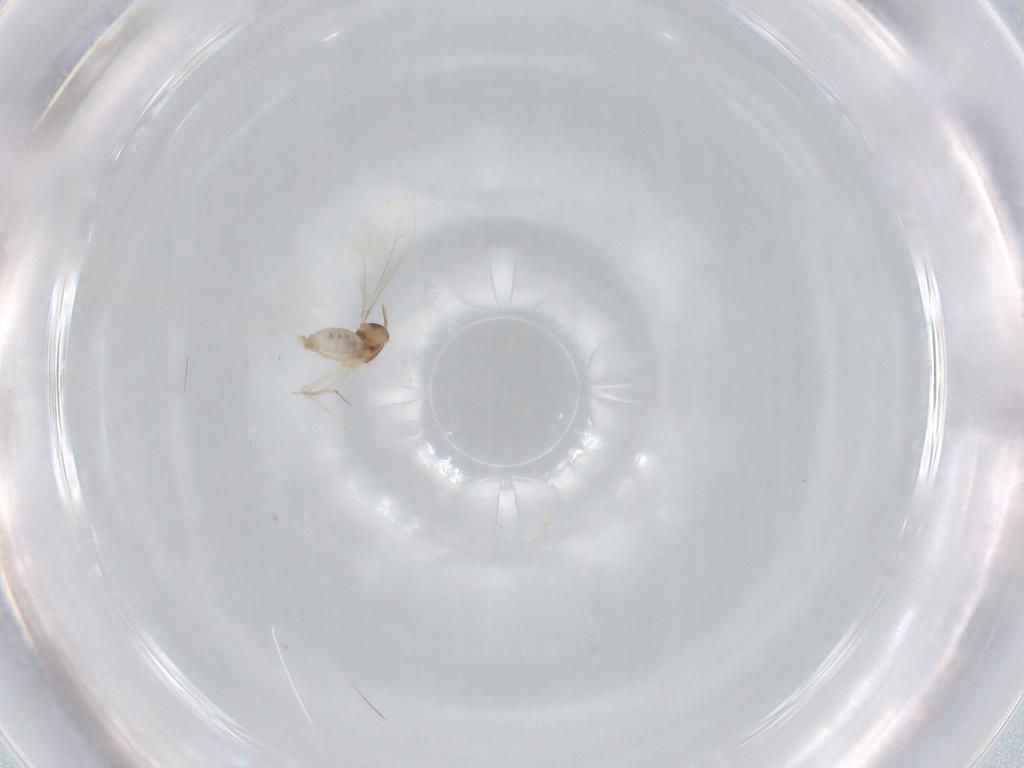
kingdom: Animalia
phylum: Arthropoda
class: Insecta
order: Diptera
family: Cecidomyiidae
